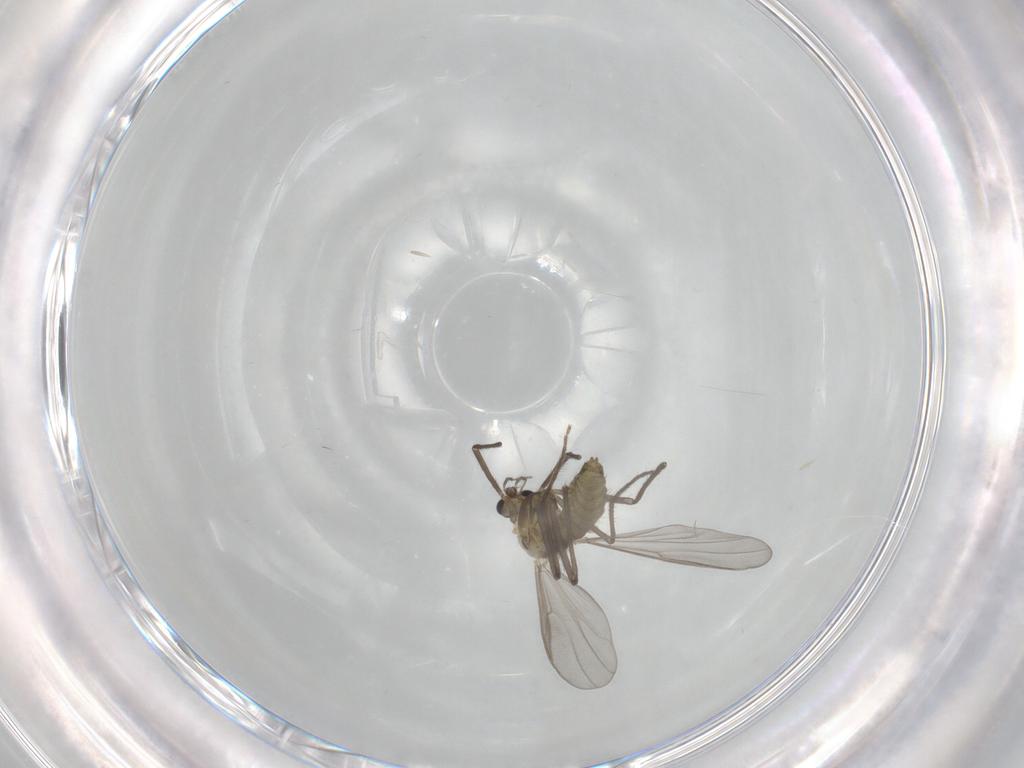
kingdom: Animalia
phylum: Arthropoda
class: Insecta
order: Diptera
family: Chironomidae
